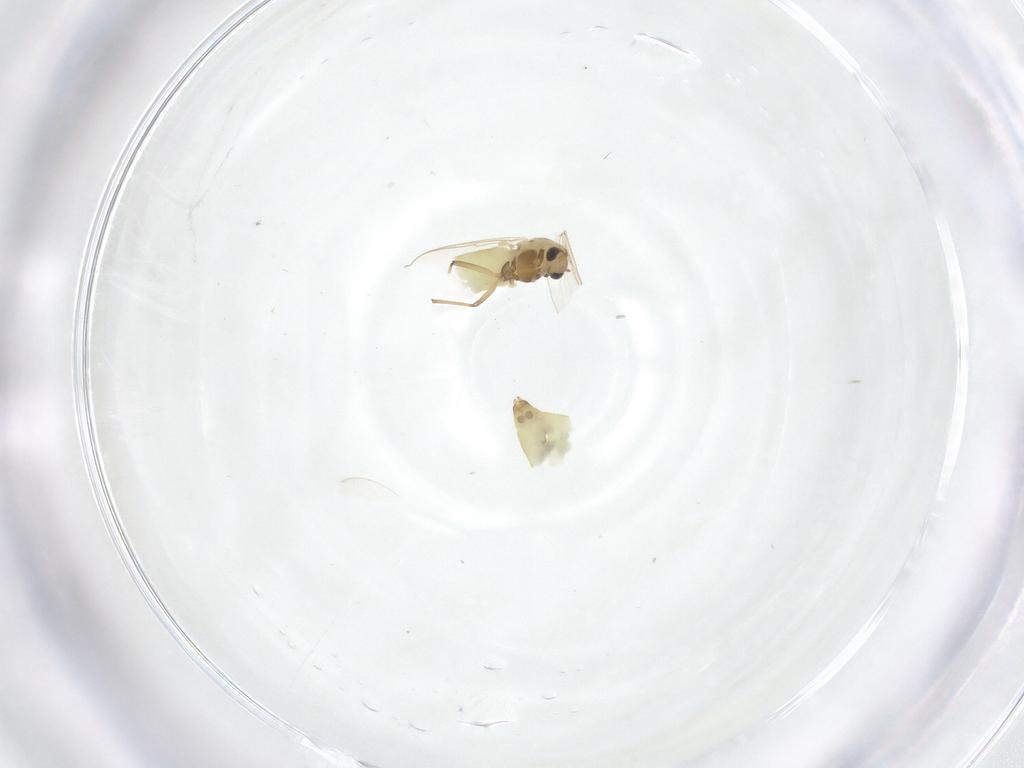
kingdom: Animalia
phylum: Arthropoda
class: Insecta
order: Diptera
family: Chironomidae
